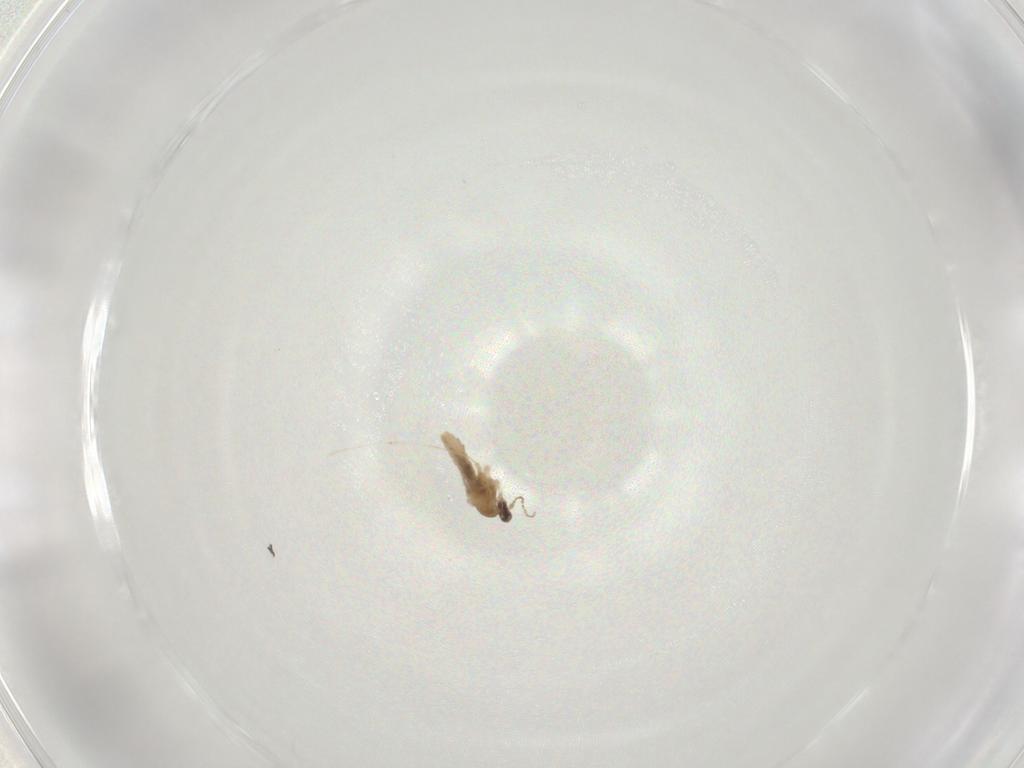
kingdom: Animalia
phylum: Arthropoda
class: Insecta
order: Diptera
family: Cecidomyiidae
